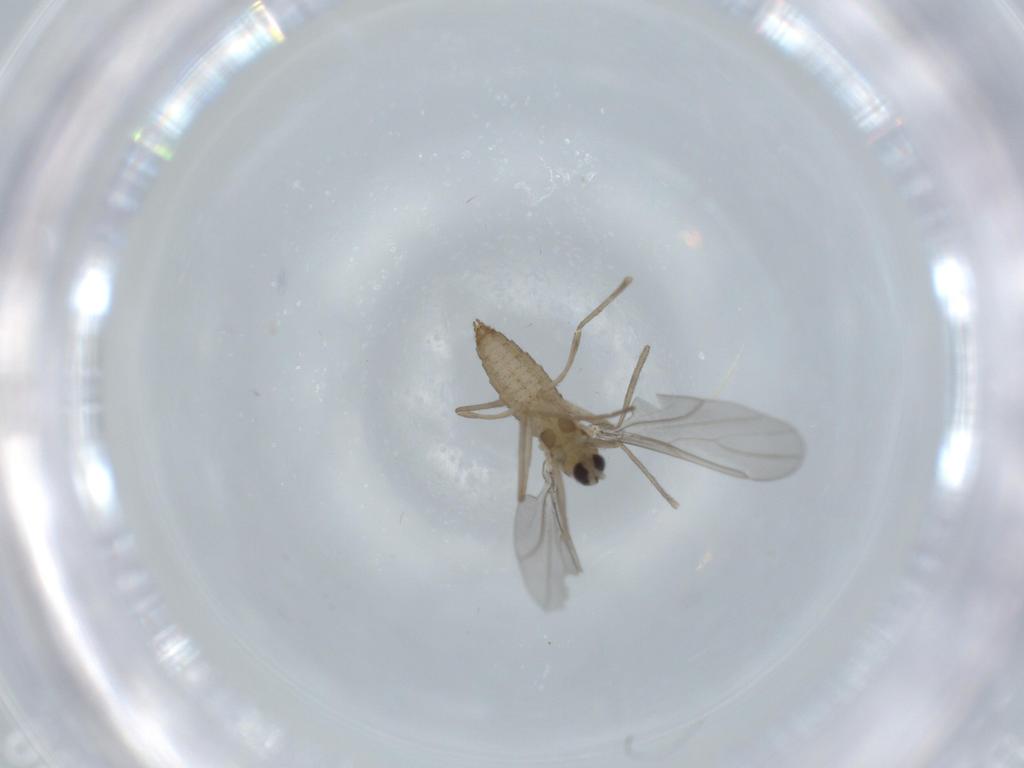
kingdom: Animalia
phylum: Arthropoda
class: Insecta
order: Diptera
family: Cecidomyiidae
